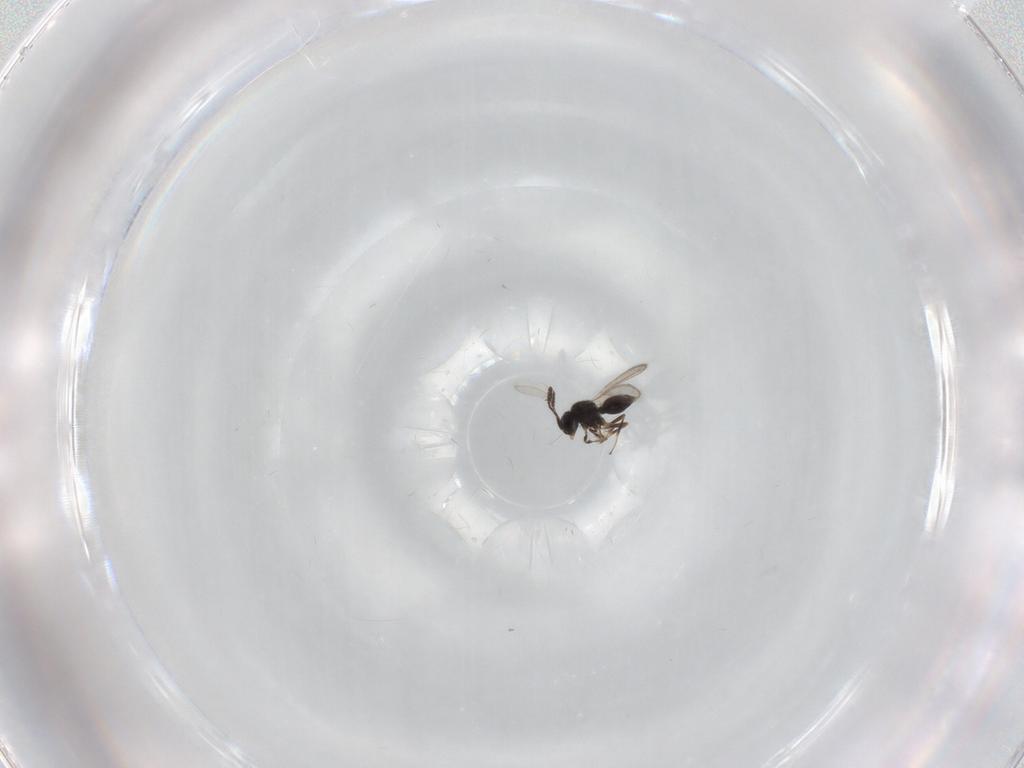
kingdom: Animalia
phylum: Arthropoda
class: Insecta
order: Hymenoptera
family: Scelionidae
